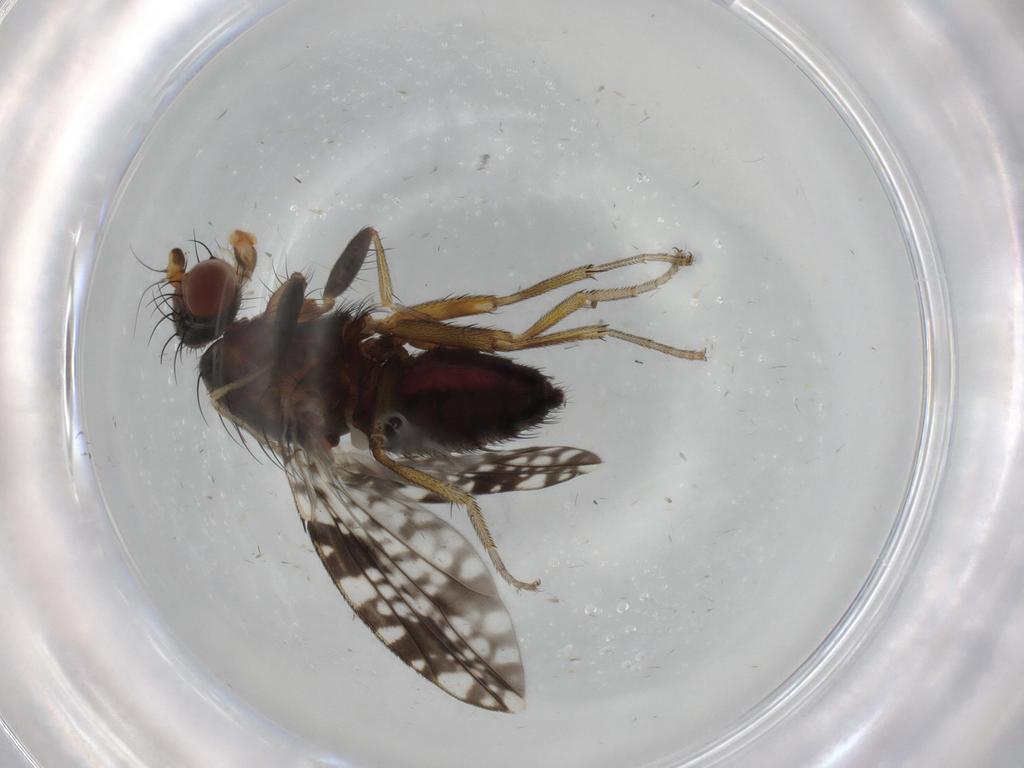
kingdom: Animalia
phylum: Arthropoda
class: Insecta
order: Diptera
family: Tephritidae
